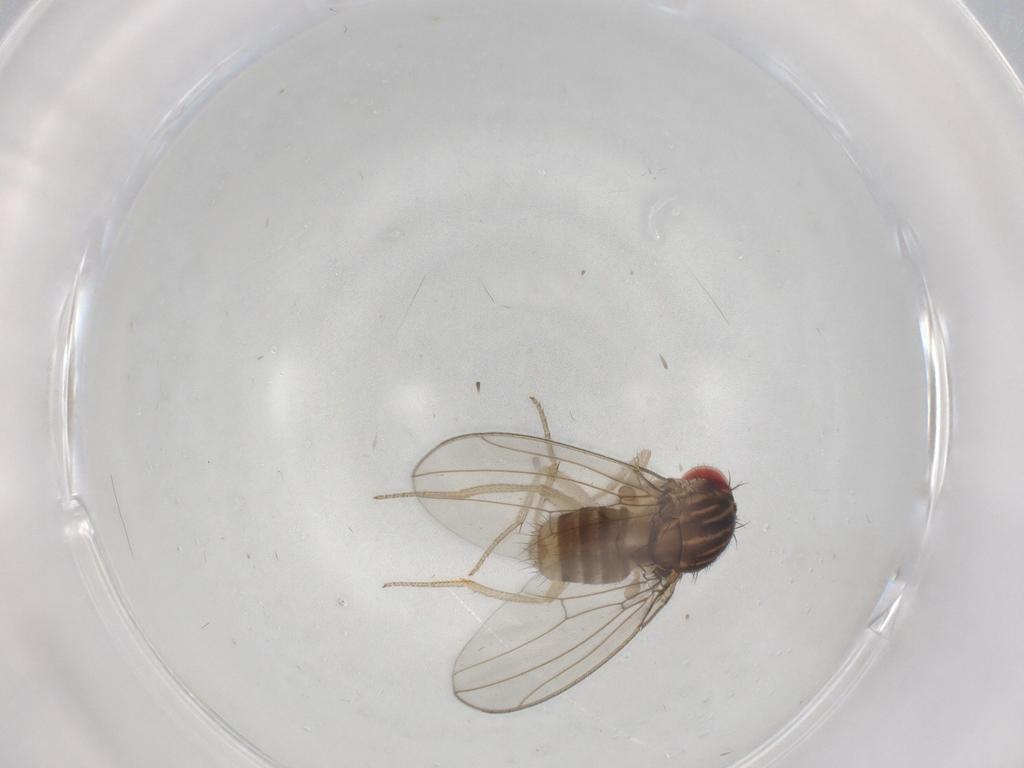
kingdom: Animalia
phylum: Arthropoda
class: Insecta
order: Diptera
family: Drosophilidae
